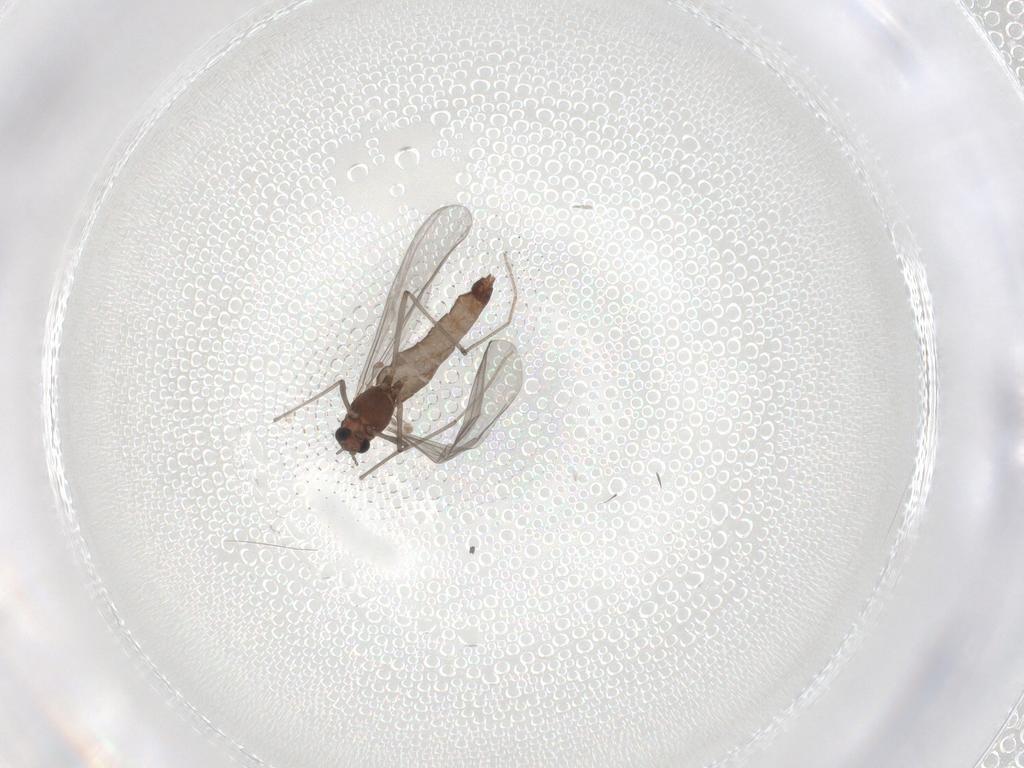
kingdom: Animalia
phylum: Arthropoda
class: Insecta
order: Diptera
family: Chironomidae
